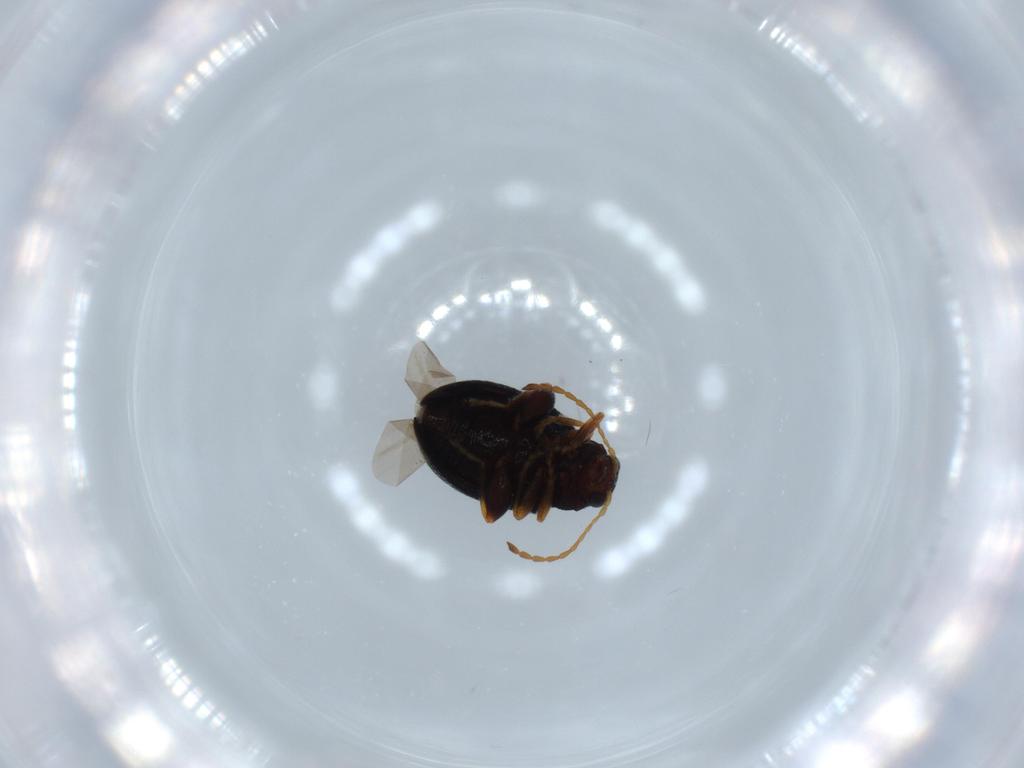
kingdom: Animalia
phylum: Arthropoda
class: Insecta
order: Coleoptera
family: Chrysomelidae
